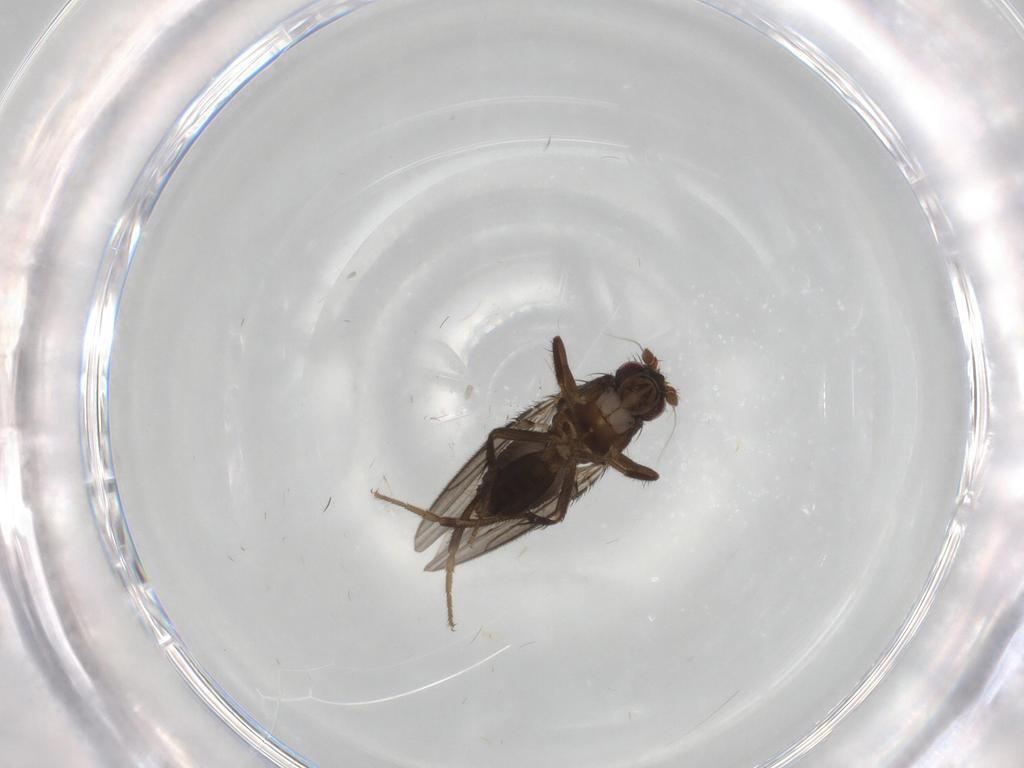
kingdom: Animalia
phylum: Arthropoda
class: Insecta
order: Diptera
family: Sphaeroceridae
